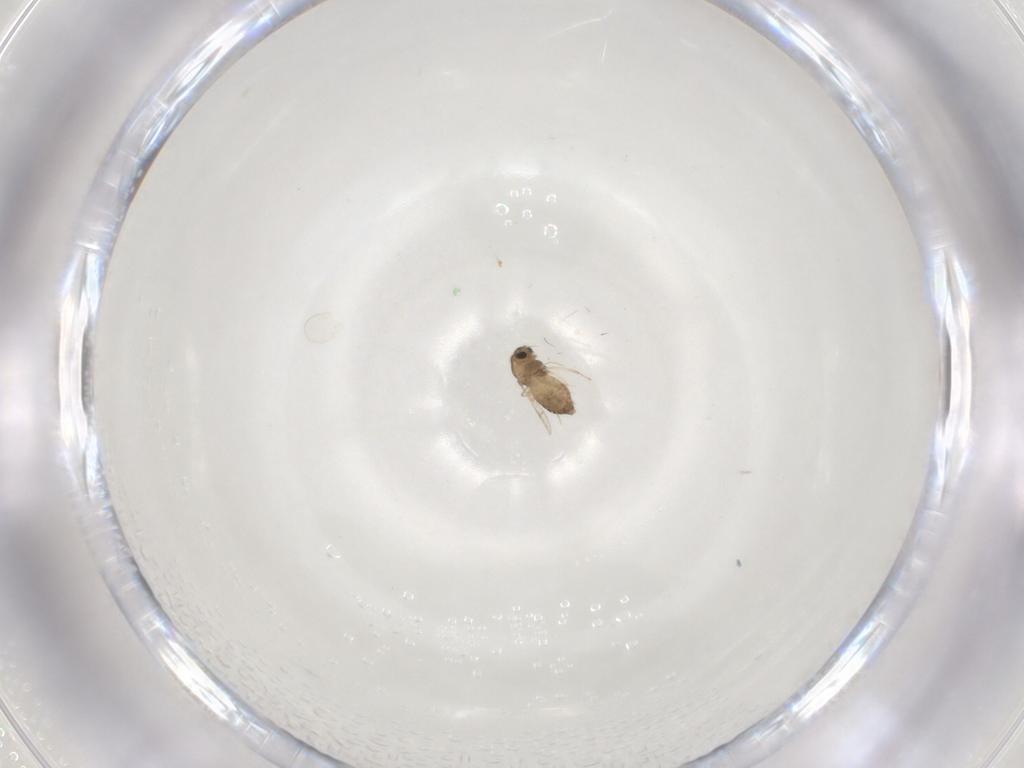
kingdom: Animalia
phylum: Arthropoda
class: Insecta
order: Diptera
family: Chironomidae
